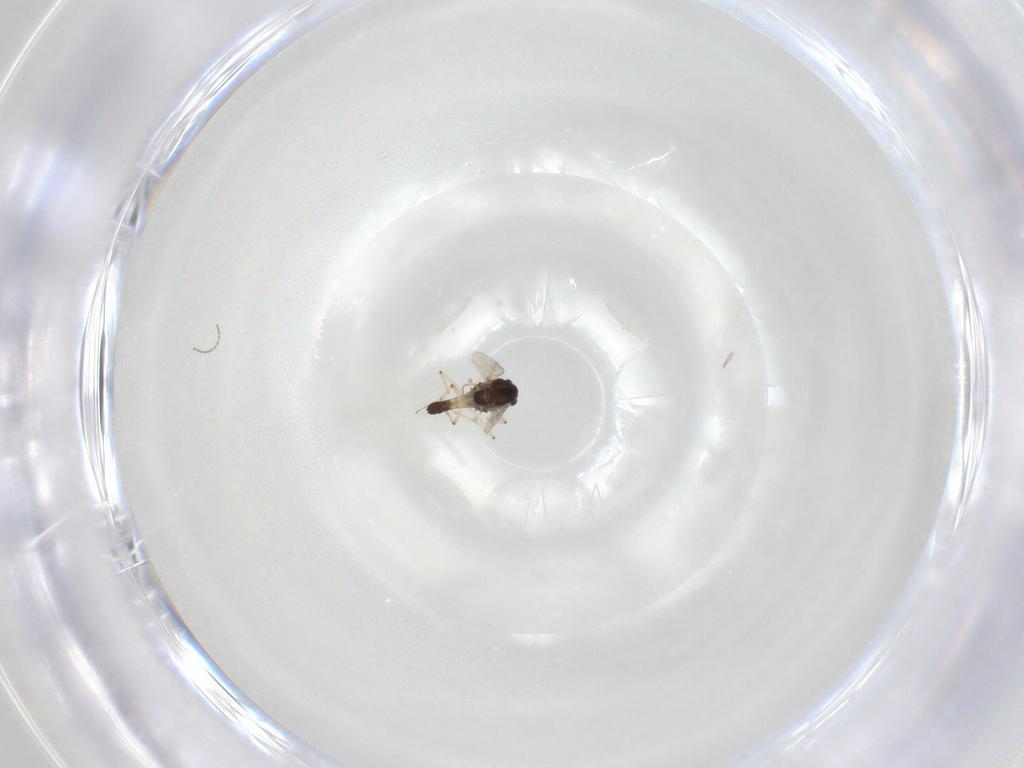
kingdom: Animalia
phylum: Arthropoda
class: Insecta
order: Diptera
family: Chironomidae
